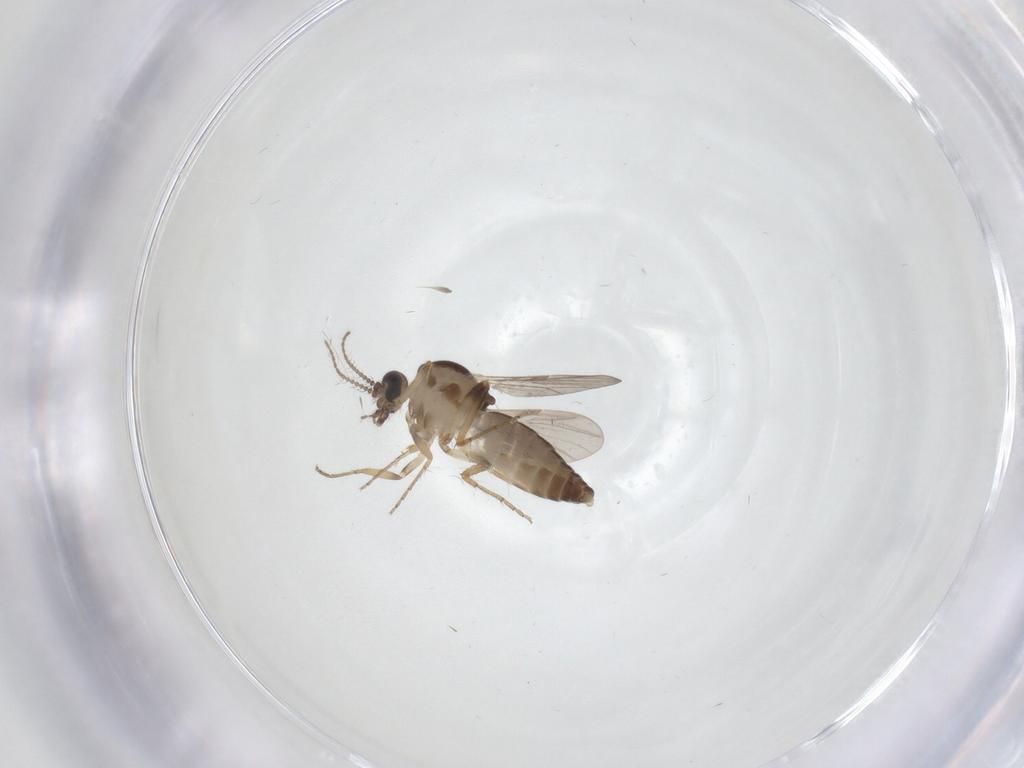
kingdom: Animalia
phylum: Arthropoda
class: Insecta
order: Diptera
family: Ceratopogonidae
